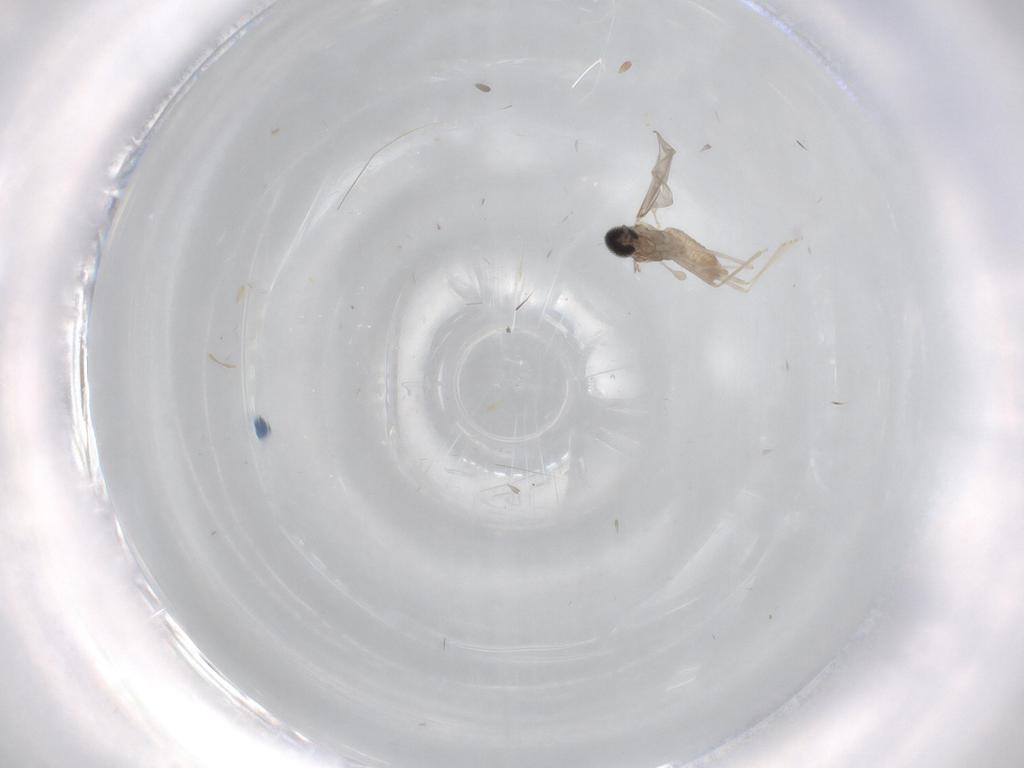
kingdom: Animalia
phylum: Arthropoda
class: Insecta
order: Diptera
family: Cecidomyiidae
